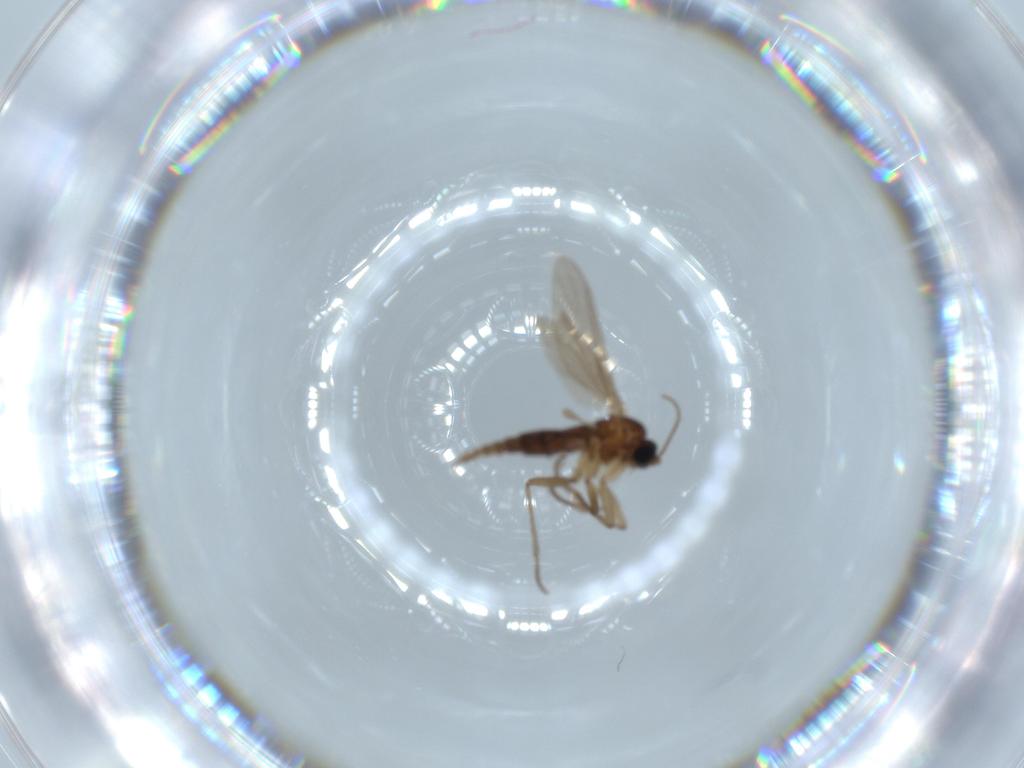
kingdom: Animalia
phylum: Arthropoda
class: Insecta
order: Diptera
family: Sciaridae
